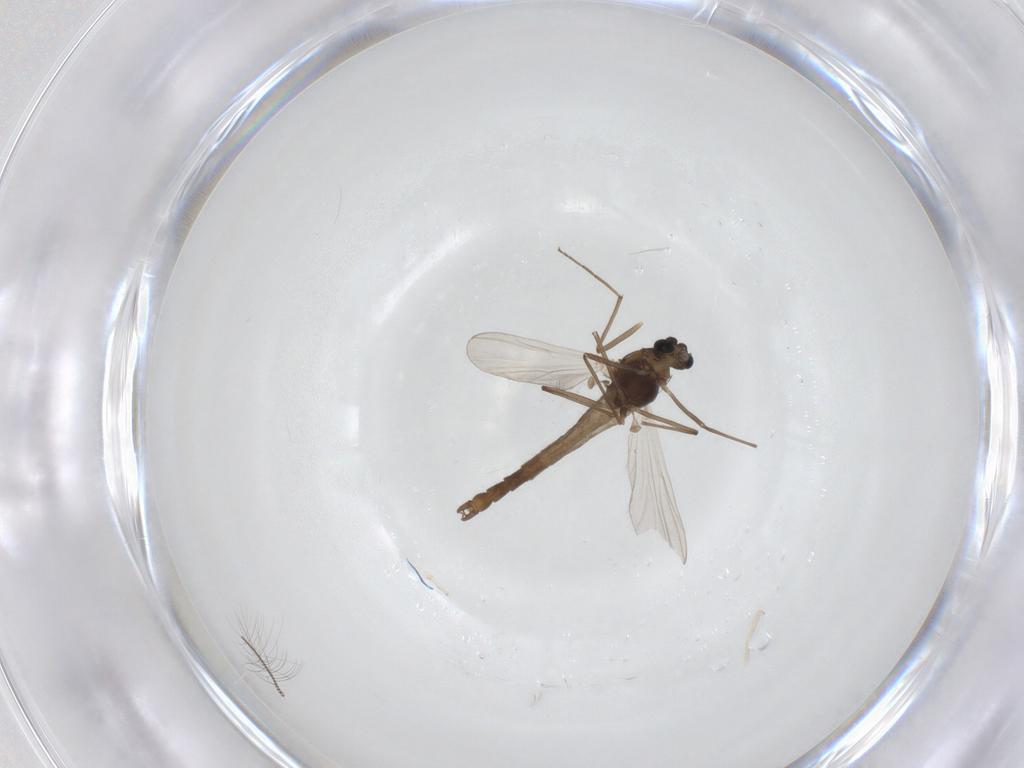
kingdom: Animalia
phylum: Arthropoda
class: Insecta
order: Diptera
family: Chironomidae
